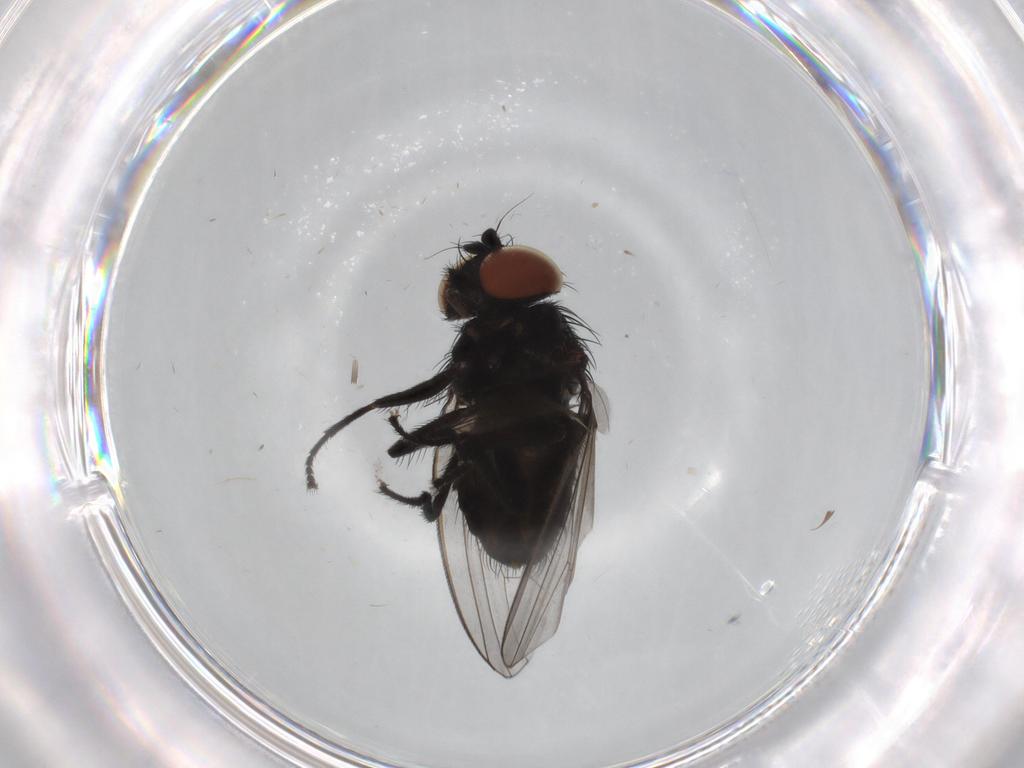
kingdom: Animalia
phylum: Arthropoda
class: Insecta
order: Diptera
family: Milichiidae
